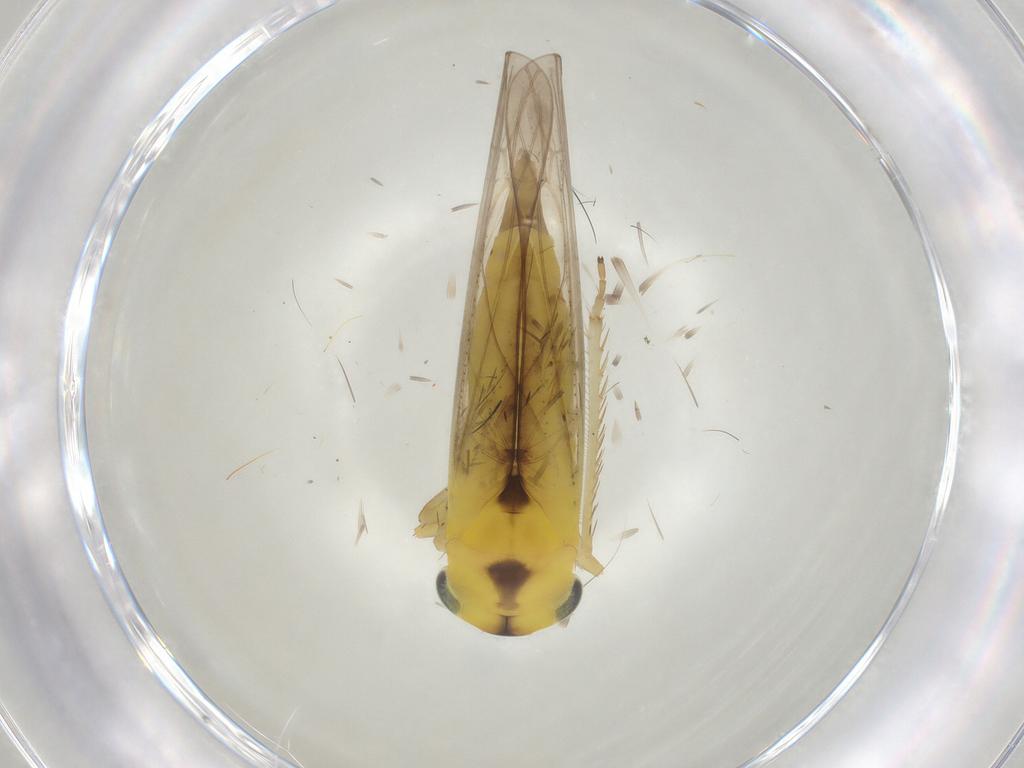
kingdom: Animalia
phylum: Arthropoda
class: Insecta
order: Hemiptera
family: Cicadellidae
